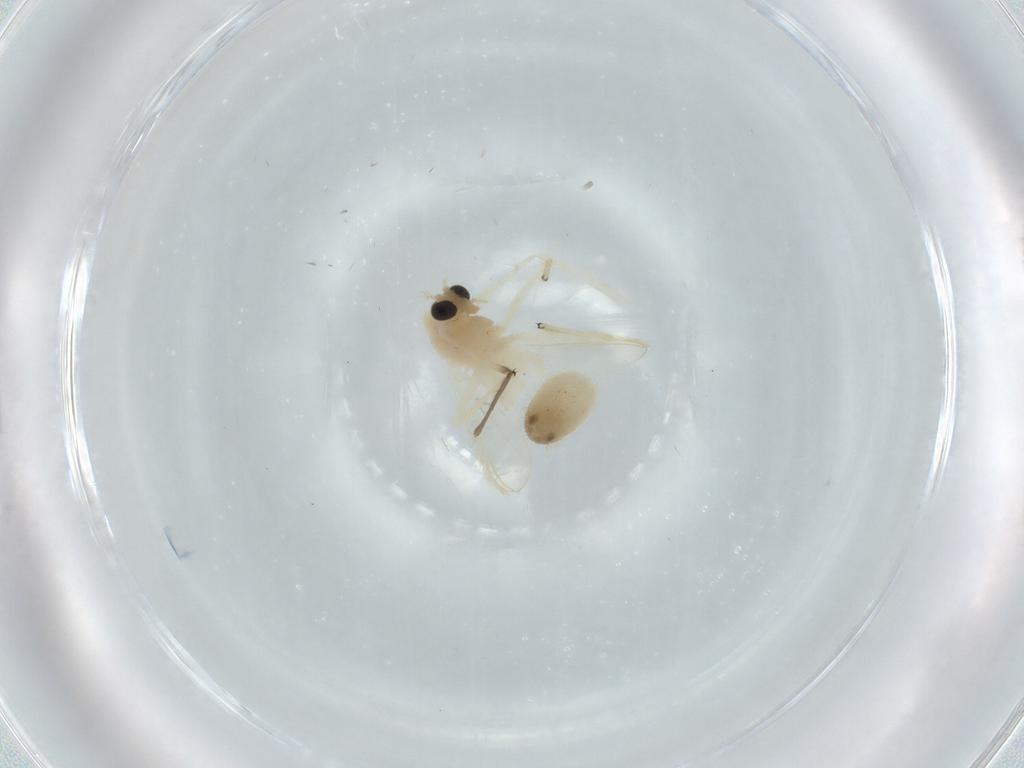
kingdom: Animalia
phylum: Arthropoda
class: Insecta
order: Diptera
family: Chironomidae
